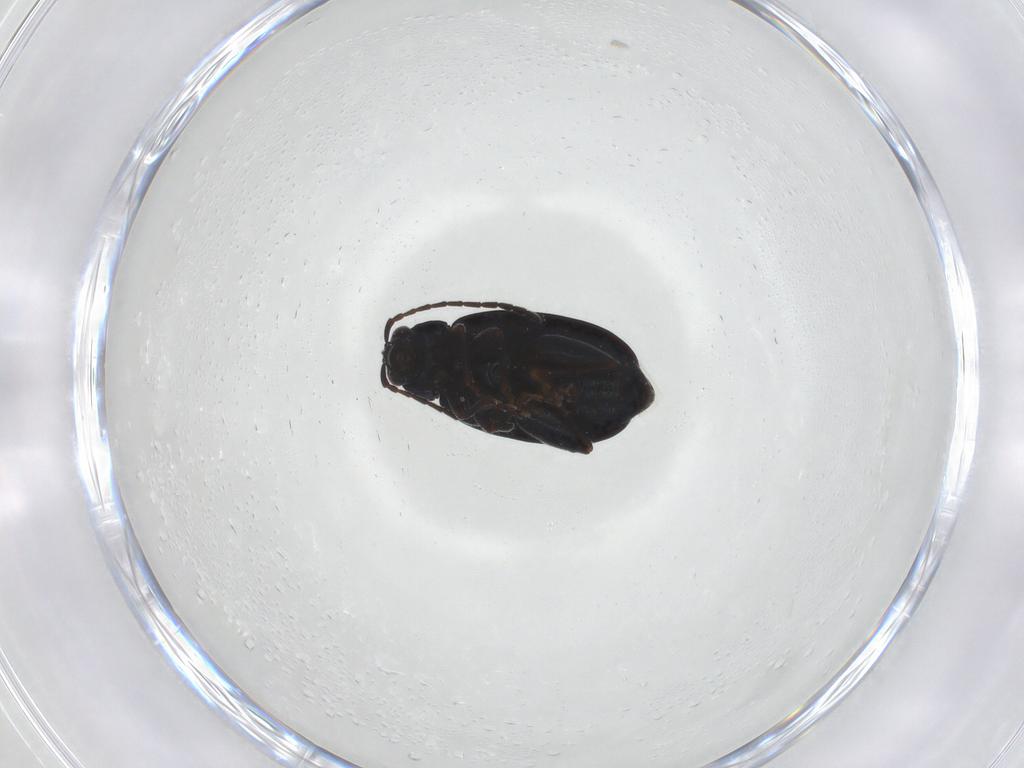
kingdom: Animalia
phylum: Arthropoda
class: Insecta
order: Coleoptera
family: Chrysomelidae
